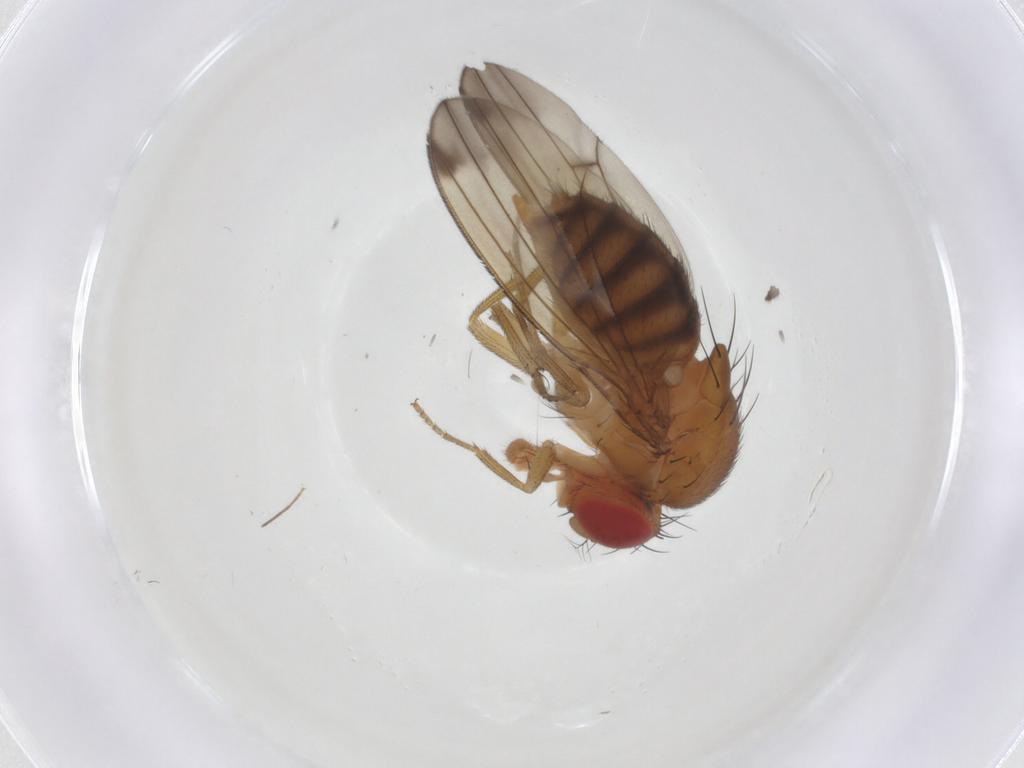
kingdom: Animalia
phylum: Arthropoda
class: Insecta
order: Diptera
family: Drosophilidae
